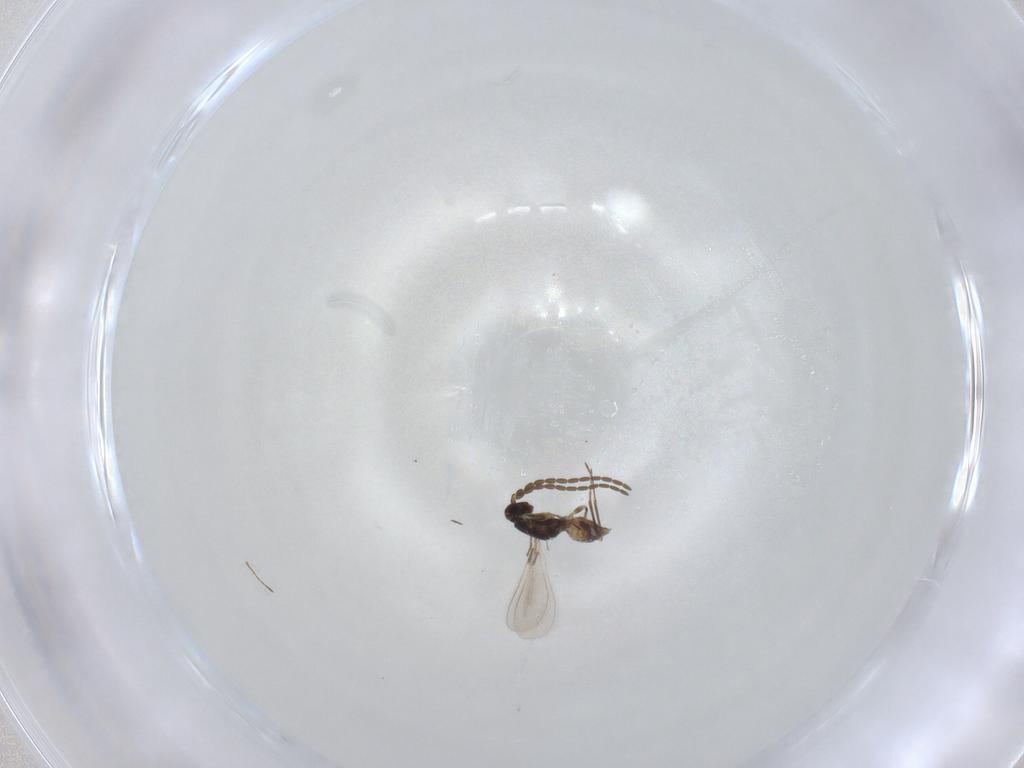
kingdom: Animalia
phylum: Arthropoda
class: Insecta
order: Hymenoptera
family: Mymaridae
